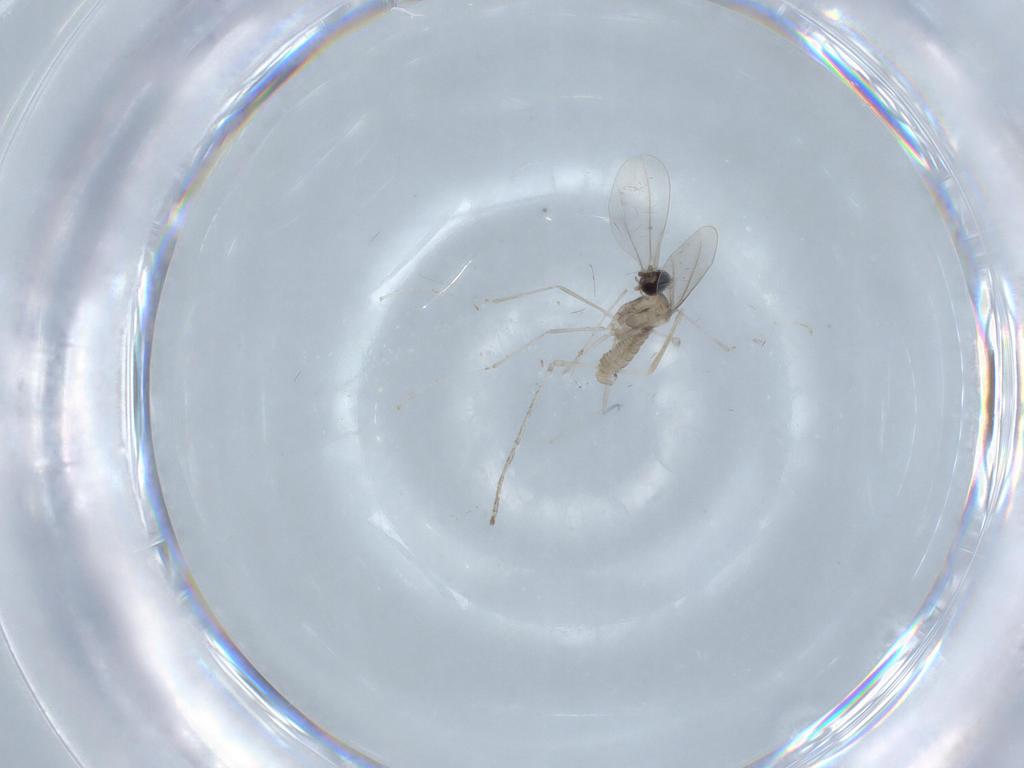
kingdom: Animalia
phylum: Arthropoda
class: Insecta
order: Diptera
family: Cecidomyiidae
